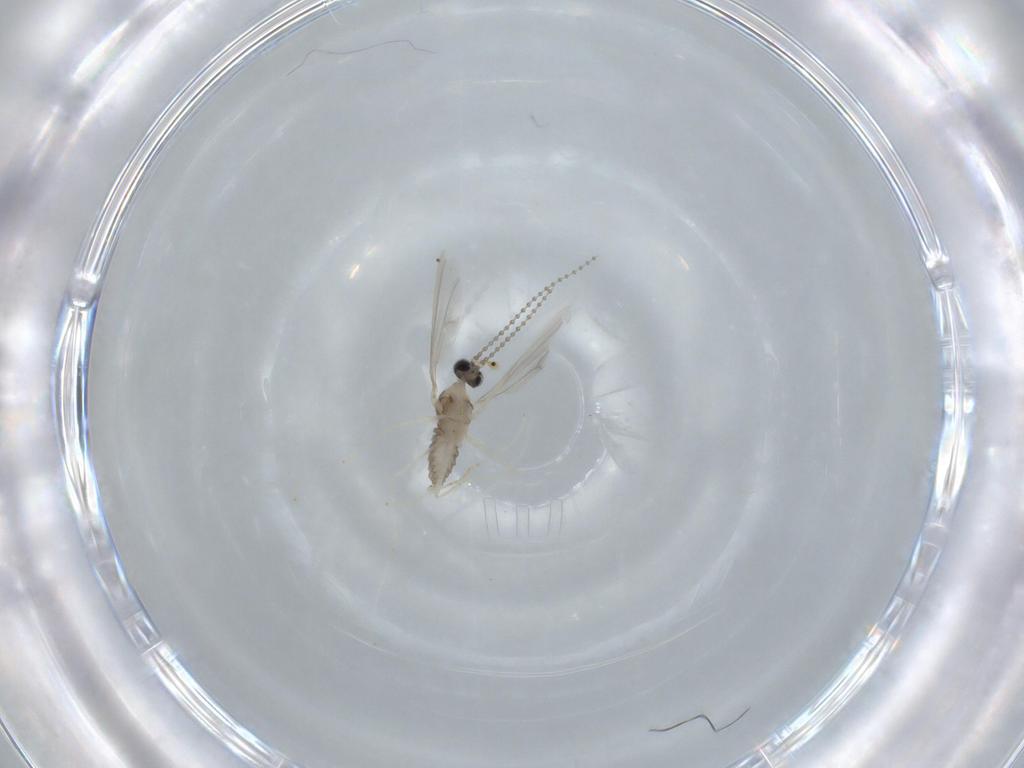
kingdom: Animalia
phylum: Arthropoda
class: Insecta
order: Diptera
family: Cecidomyiidae
